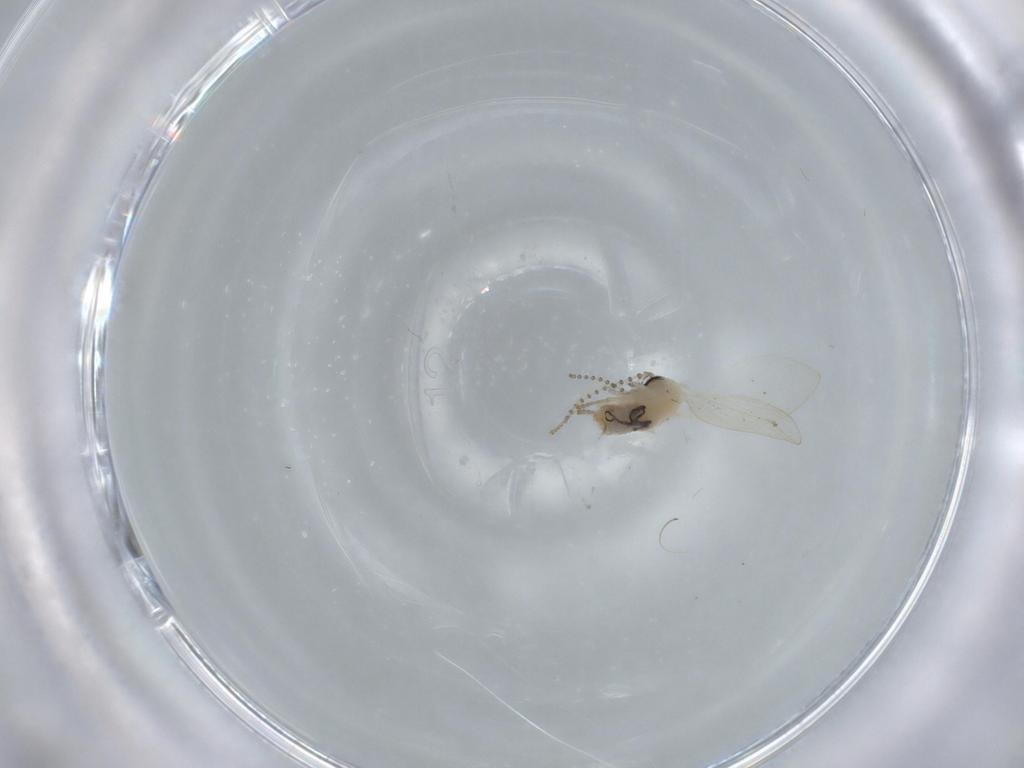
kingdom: Animalia
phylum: Arthropoda
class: Insecta
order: Diptera
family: Psychodidae
